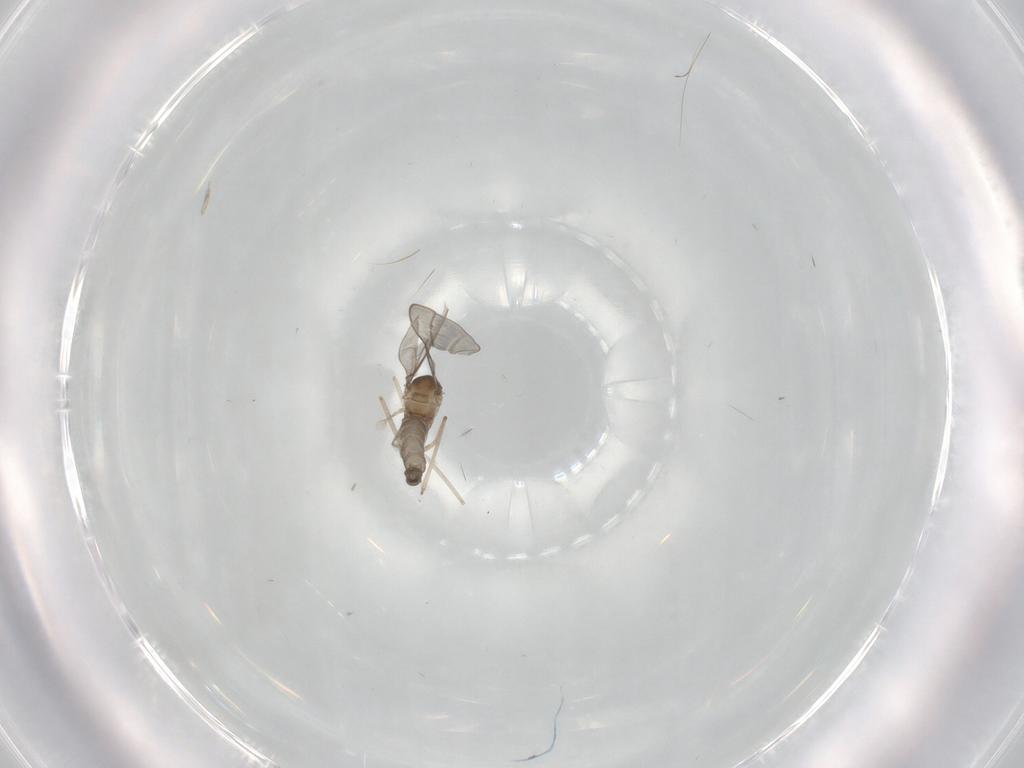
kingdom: Animalia
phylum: Arthropoda
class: Insecta
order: Diptera
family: Cecidomyiidae
